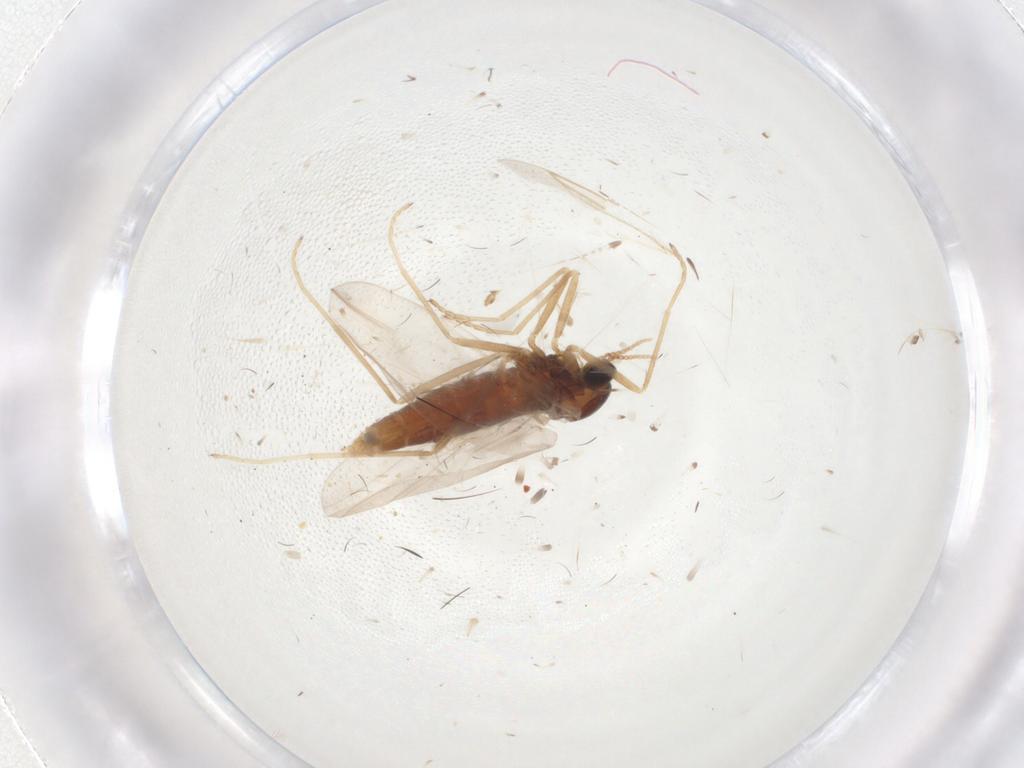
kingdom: Animalia
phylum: Arthropoda
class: Insecta
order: Diptera
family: Cecidomyiidae
